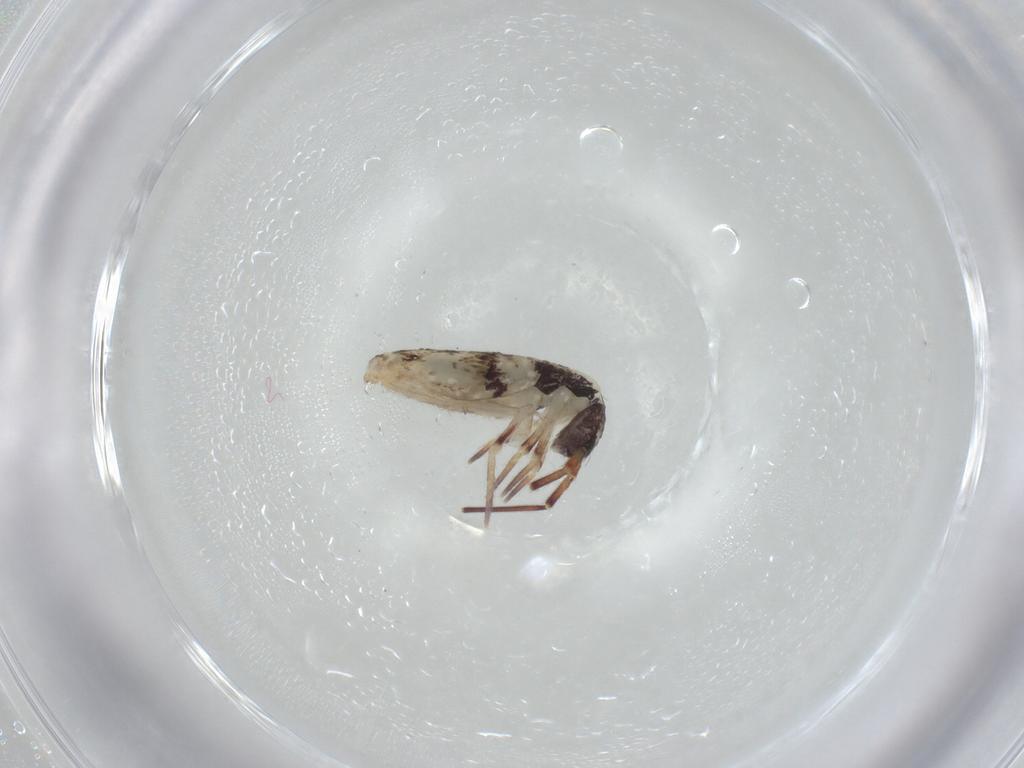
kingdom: Animalia
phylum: Arthropoda
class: Collembola
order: Entomobryomorpha
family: Entomobryidae
